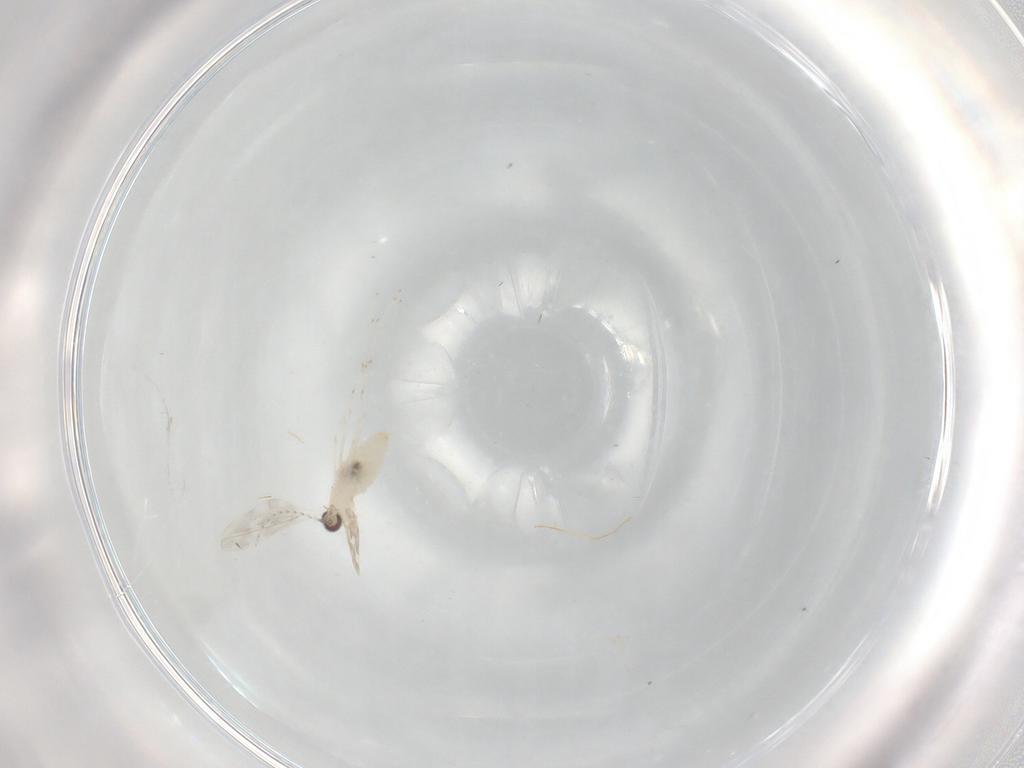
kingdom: Animalia
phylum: Arthropoda
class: Insecta
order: Diptera
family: Cecidomyiidae
